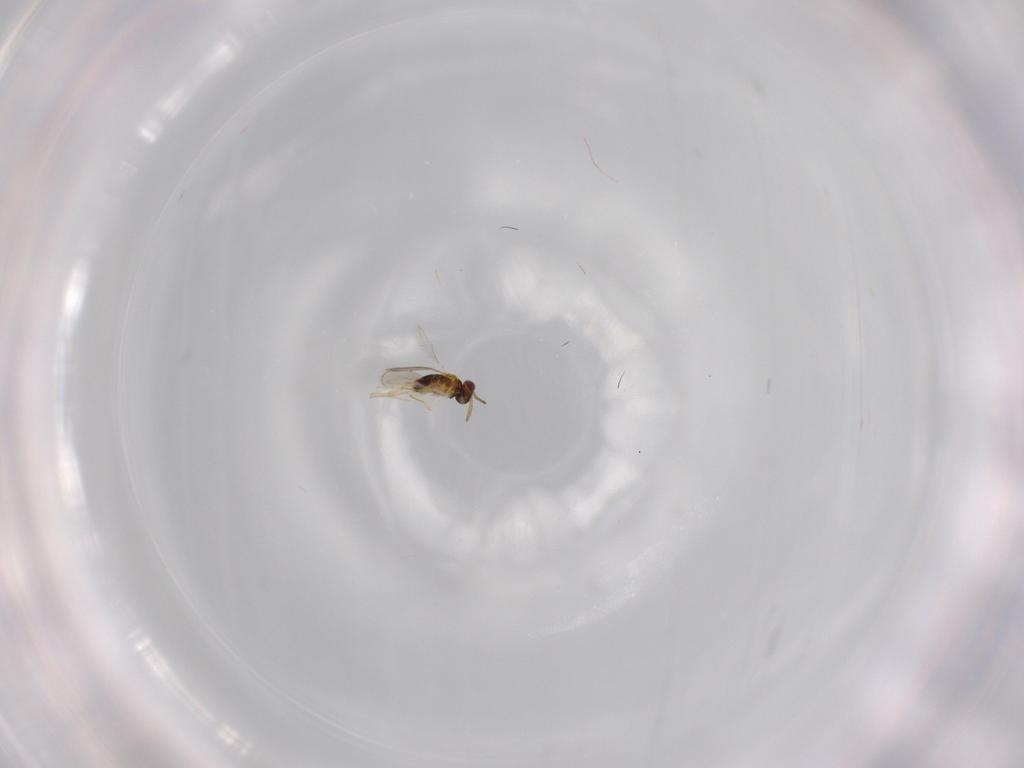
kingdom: Animalia
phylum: Arthropoda
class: Insecta
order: Hymenoptera
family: Aphelinidae
